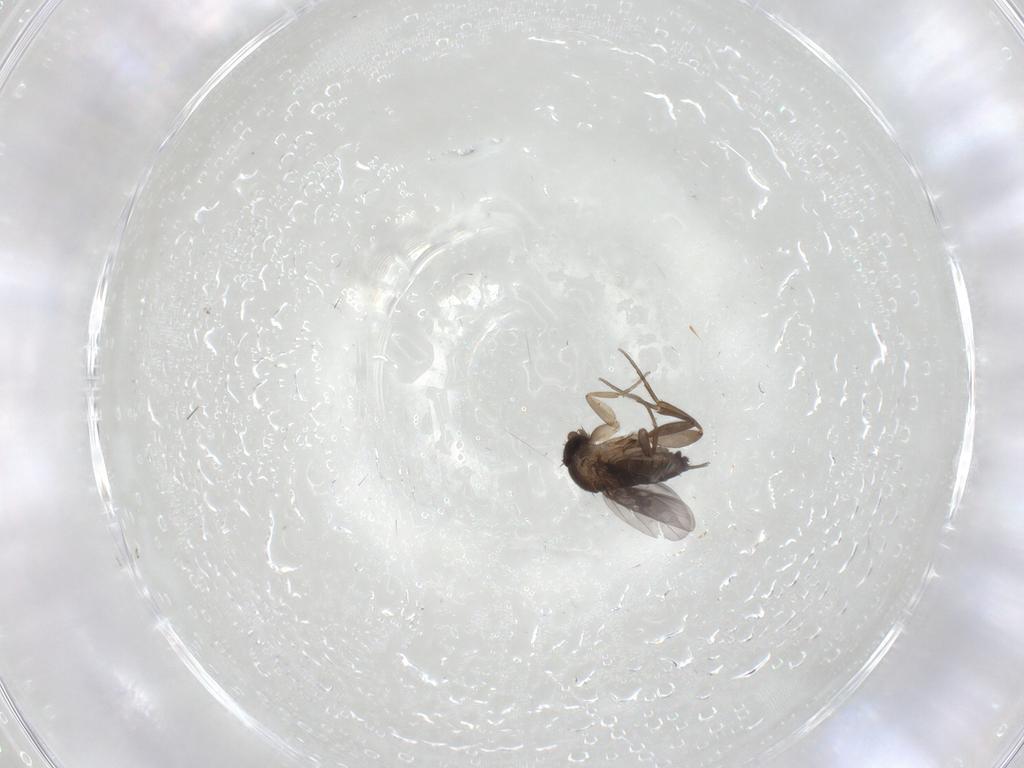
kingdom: Animalia
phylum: Arthropoda
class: Insecta
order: Diptera
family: Phoridae
